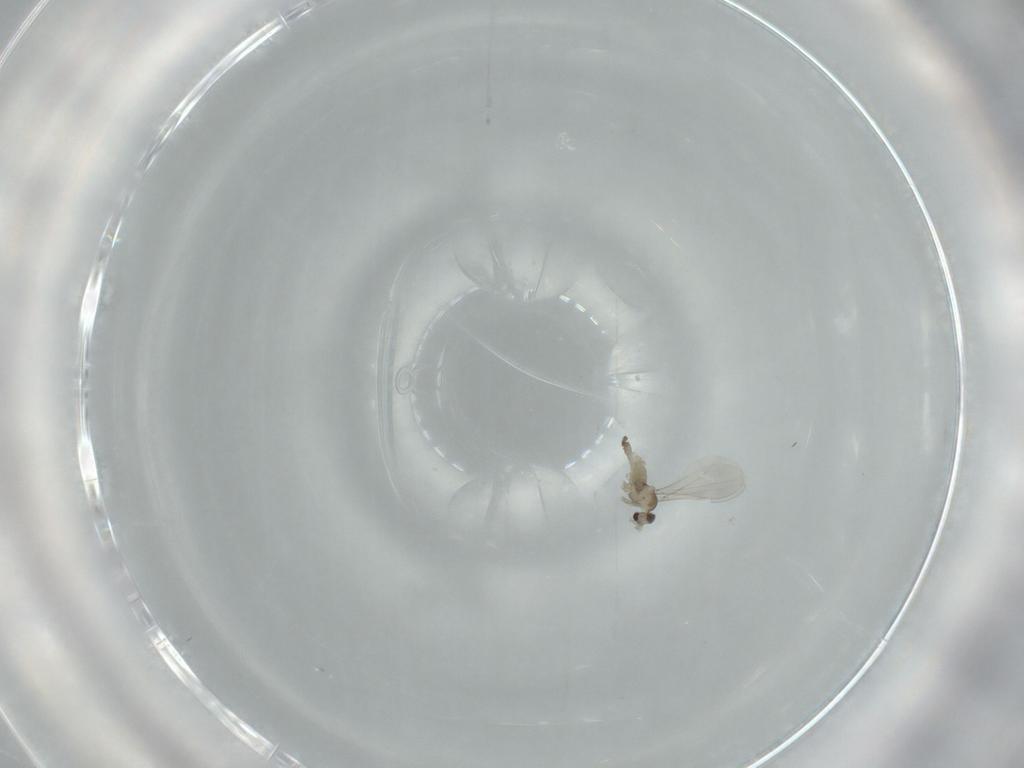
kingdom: Animalia
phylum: Arthropoda
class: Insecta
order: Diptera
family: Cecidomyiidae
